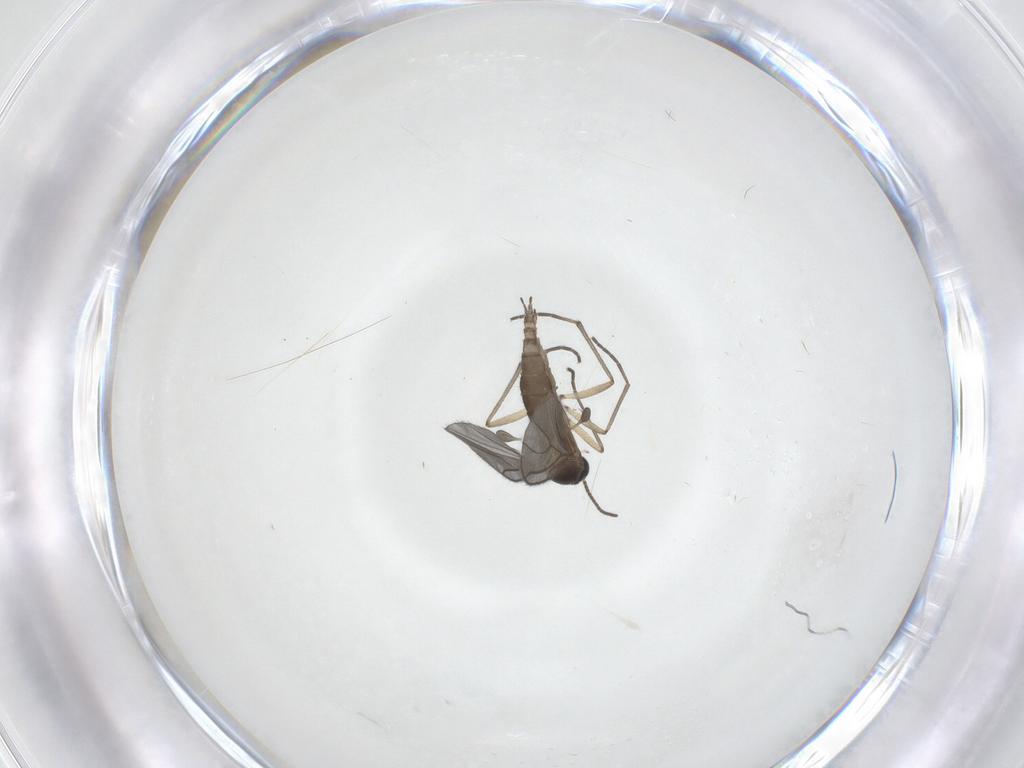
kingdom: Animalia
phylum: Arthropoda
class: Insecta
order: Diptera
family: Sciaridae
